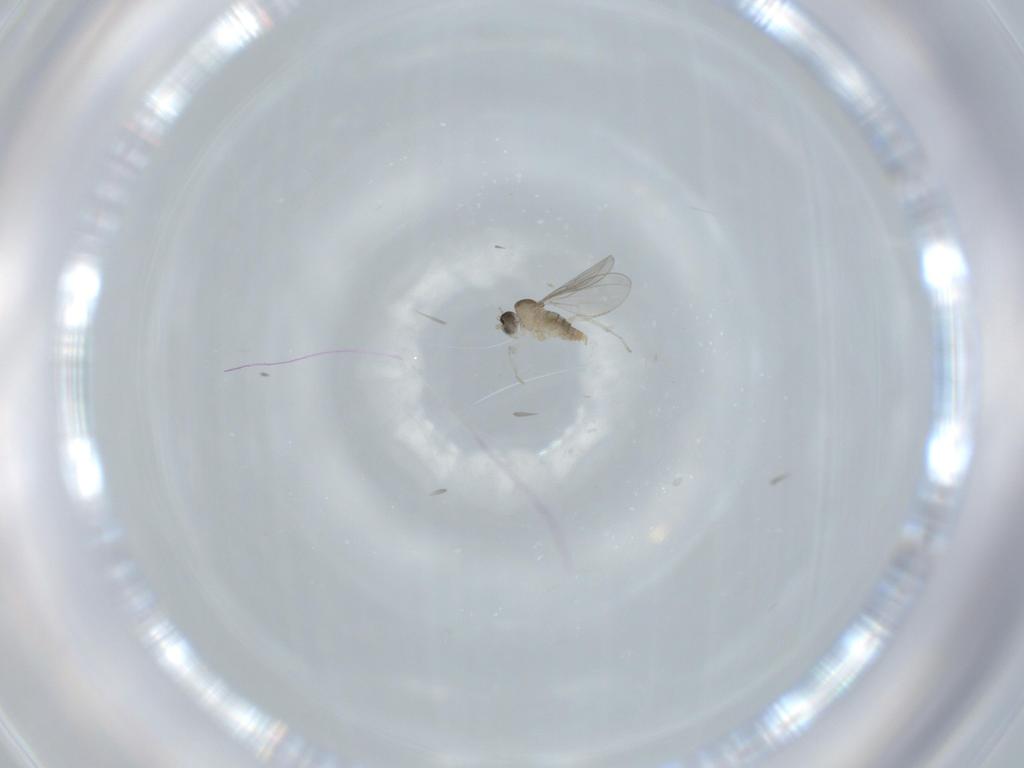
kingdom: Animalia
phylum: Arthropoda
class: Insecta
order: Diptera
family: Cecidomyiidae
